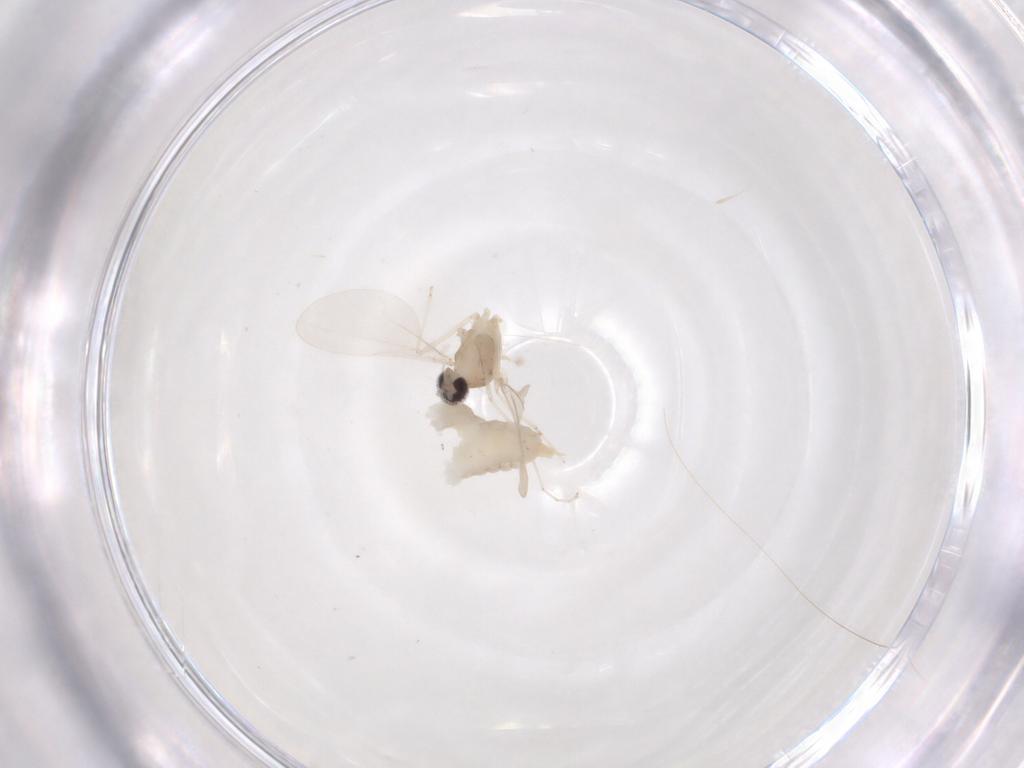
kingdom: Animalia
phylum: Arthropoda
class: Insecta
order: Diptera
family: Cecidomyiidae
